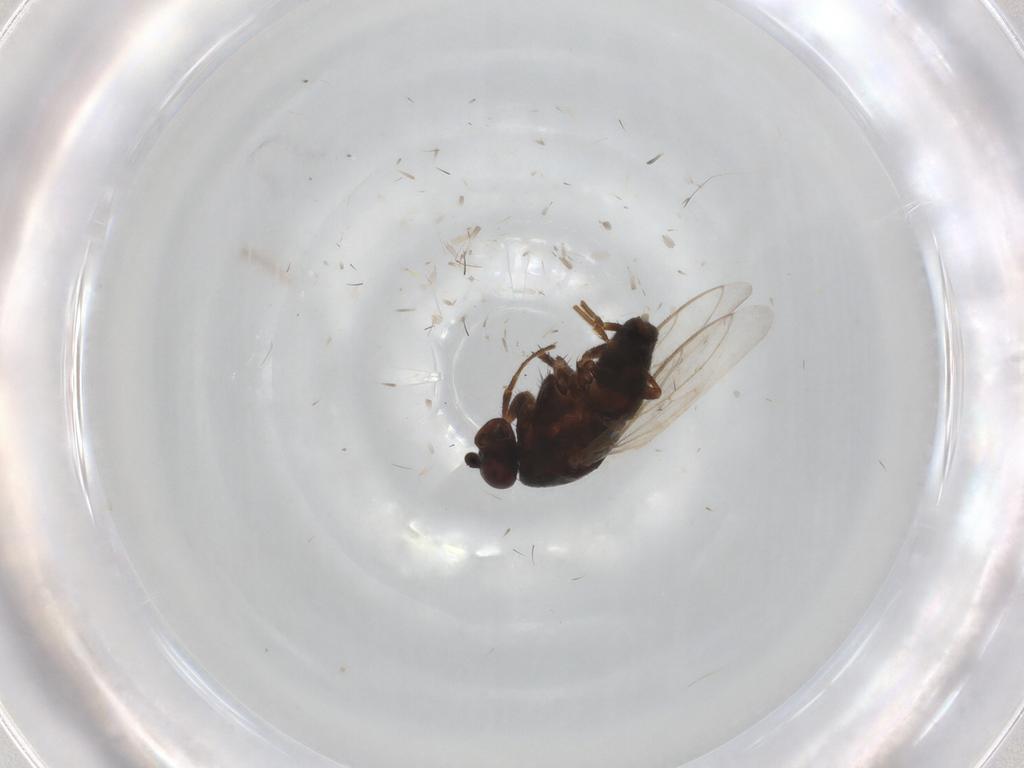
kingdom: Animalia
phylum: Arthropoda
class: Insecta
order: Diptera
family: Sphaeroceridae
